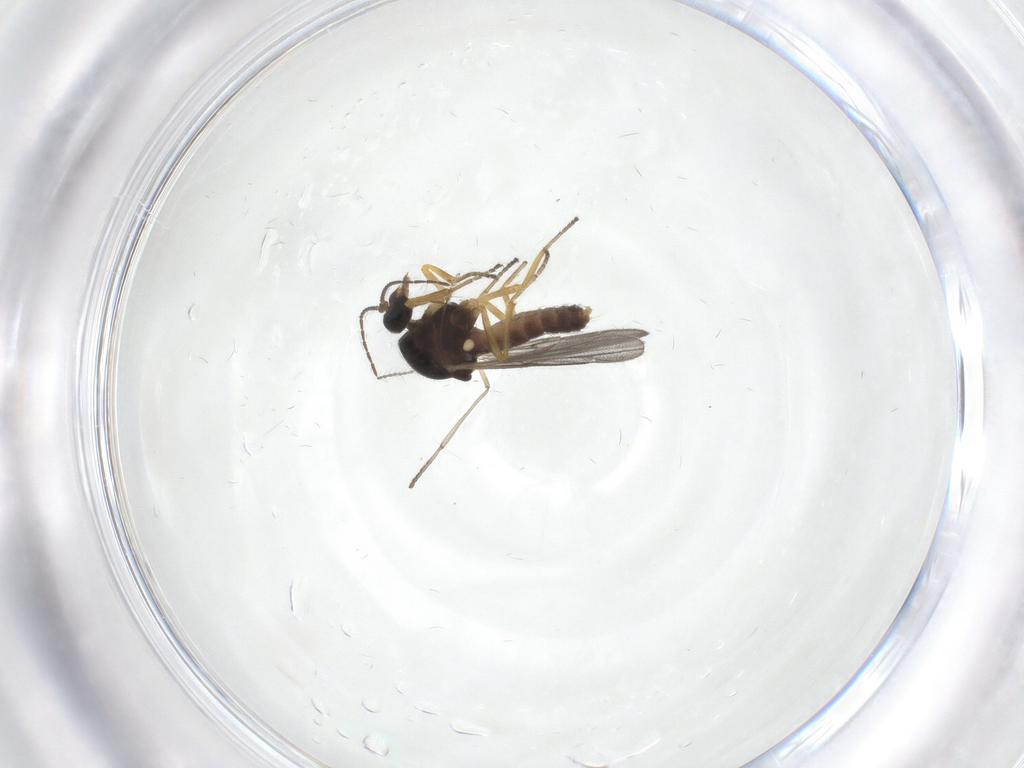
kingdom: Animalia
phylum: Arthropoda
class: Insecta
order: Diptera
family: Ceratopogonidae
